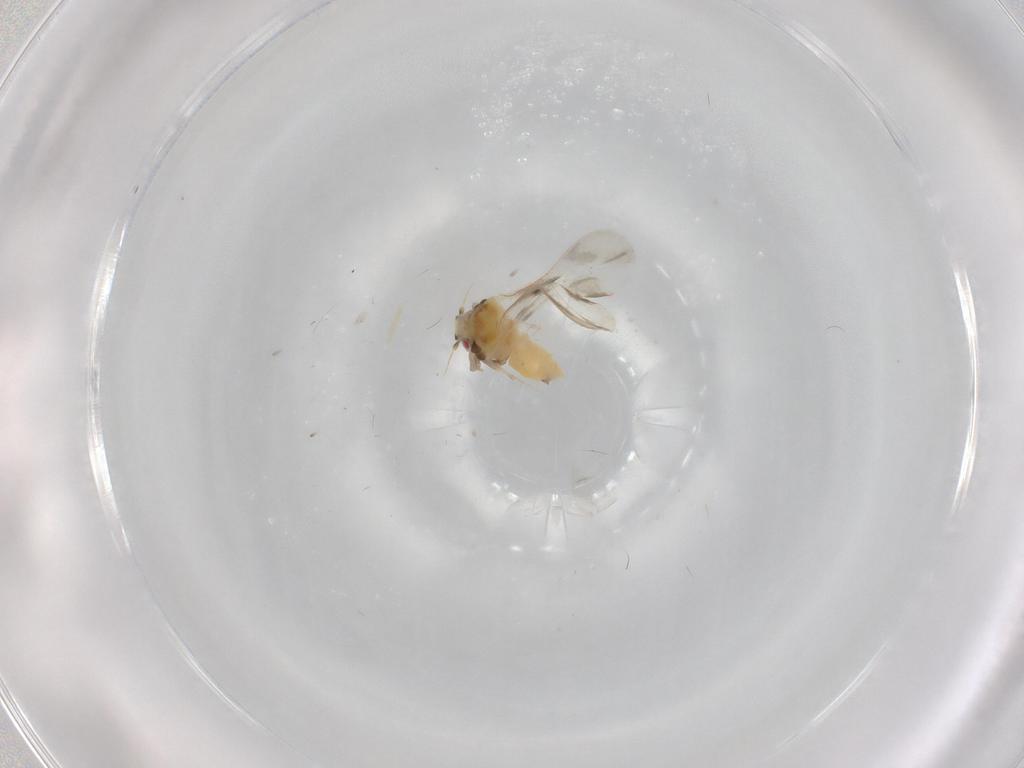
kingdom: Animalia
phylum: Arthropoda
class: Insecta
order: Hemiptera
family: Aleyrodidae
